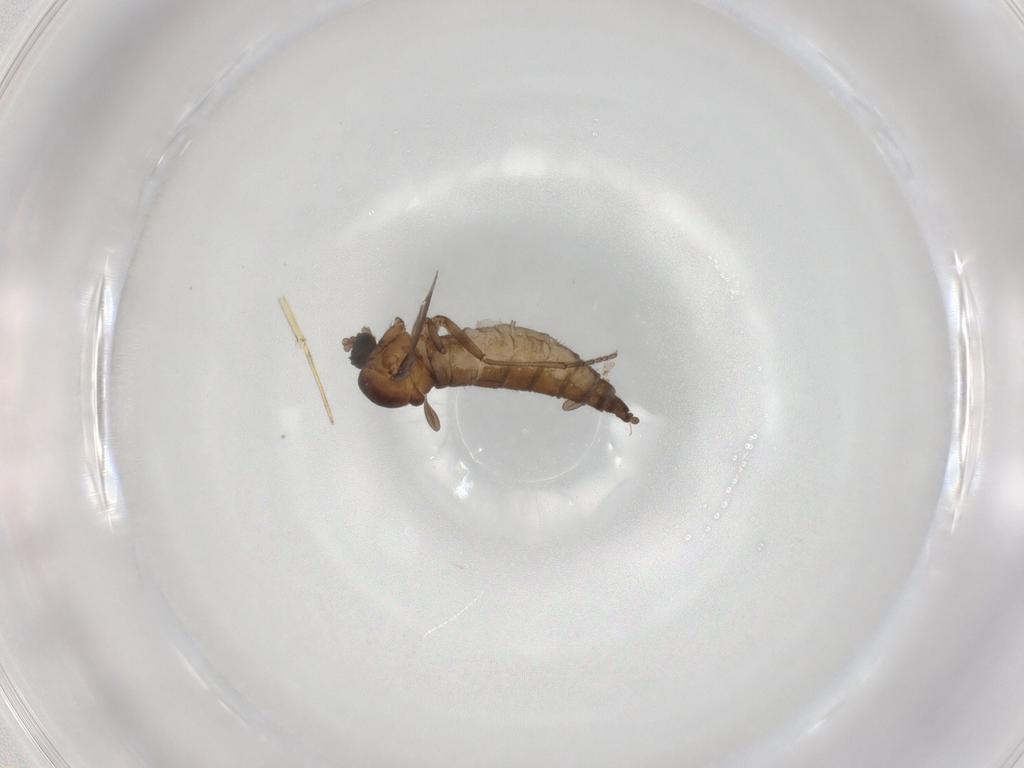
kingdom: Animalia
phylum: Arthropoda
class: Insecta
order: Diptera
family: Sciaridae
